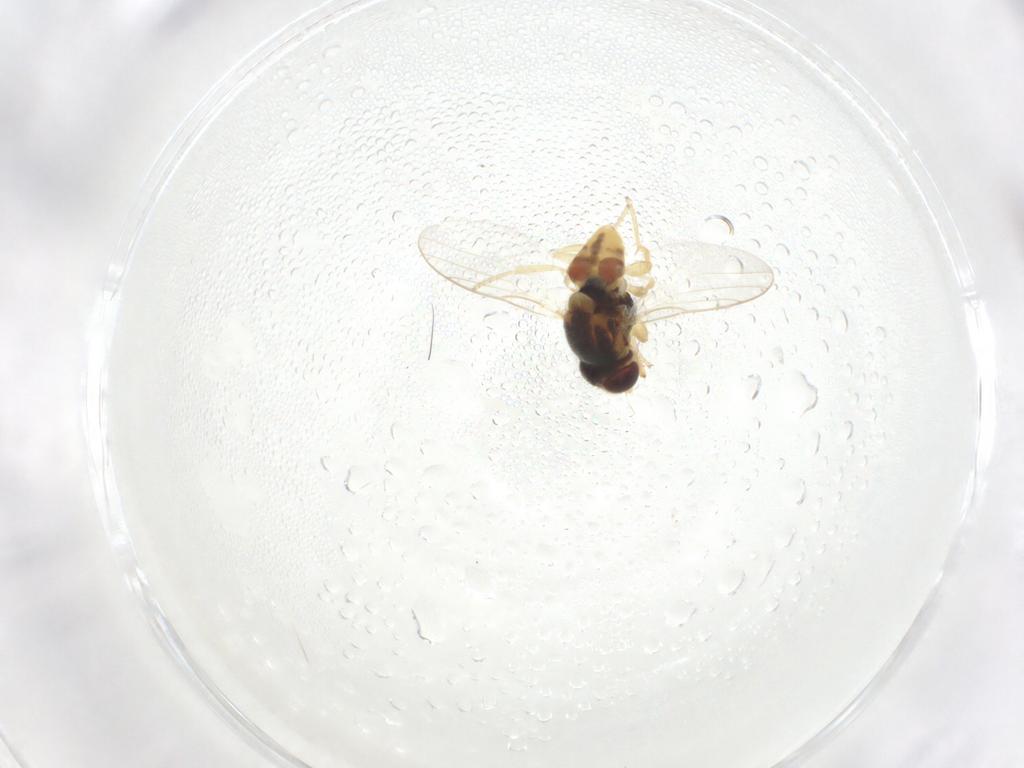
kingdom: Animalia
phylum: Arthropoda
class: Insecta
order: Diptera
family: Chloropidae
